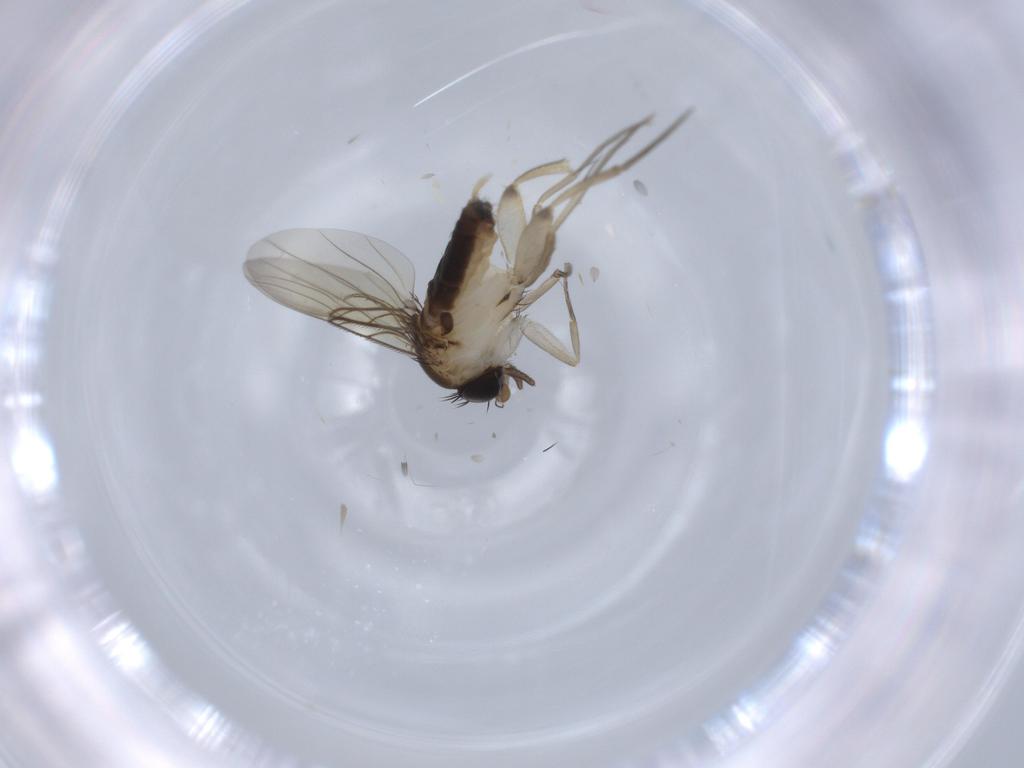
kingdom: Animalia
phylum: Arthropoda
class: Insecta
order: Diptera
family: Phoridae
